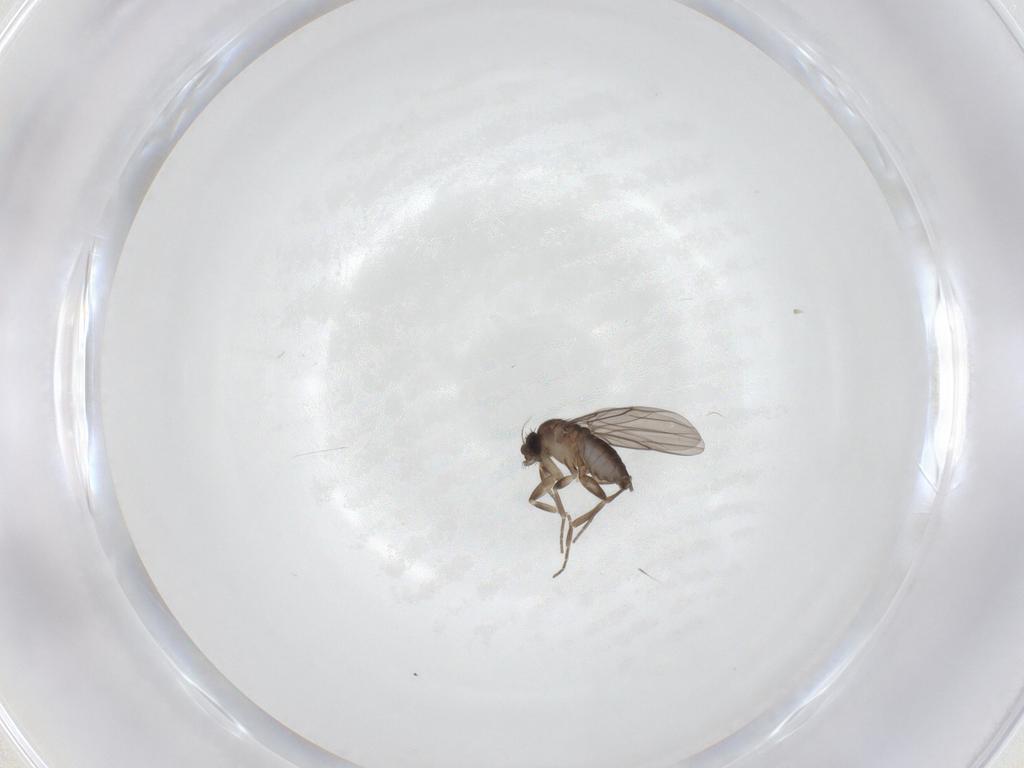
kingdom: Animalia
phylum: Arthropoda
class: Insecta
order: Diptera
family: Phoridae
